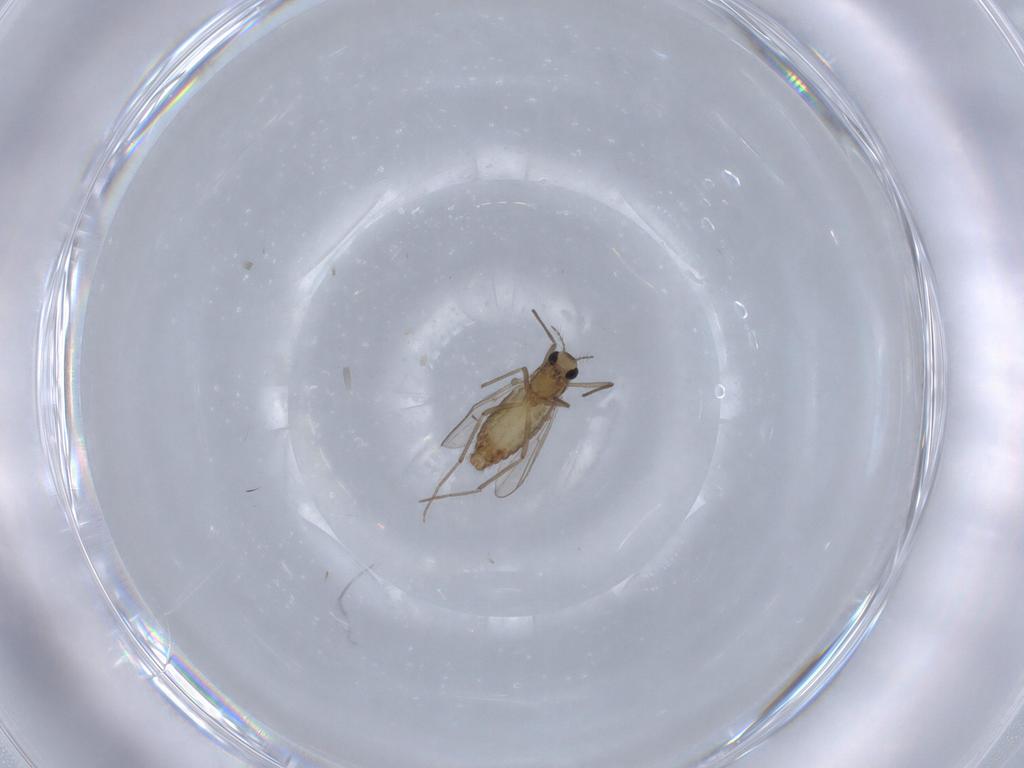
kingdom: Animalia
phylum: Arthropoda
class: Insecta
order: Diptera
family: Chironomidae
